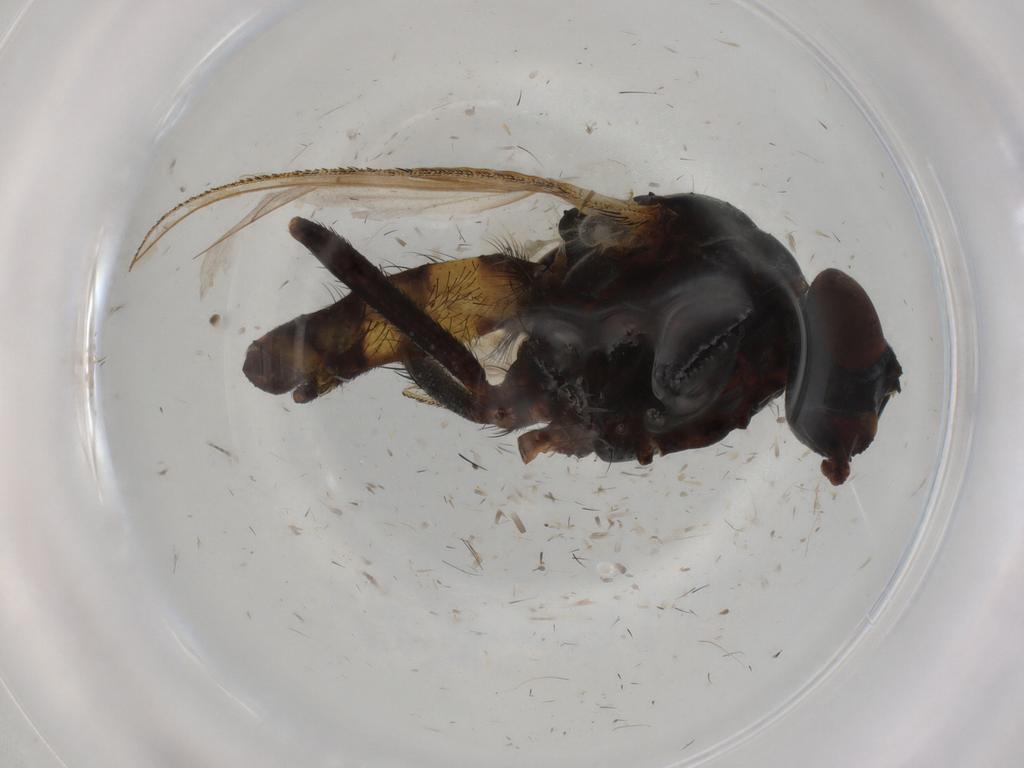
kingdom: Animalia
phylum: Arthropoda
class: Insecta
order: Diptera
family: Anthomyiidae
